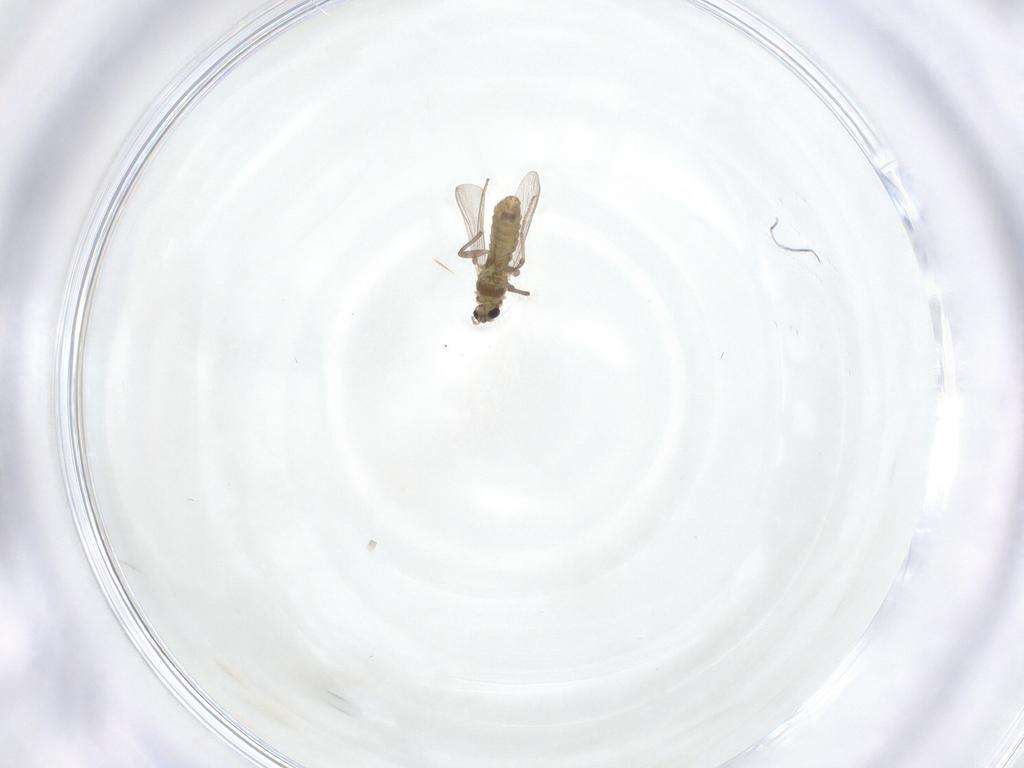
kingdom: Animalia
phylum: Arthropoda
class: Insecta
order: Diptera
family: Chironomidae
